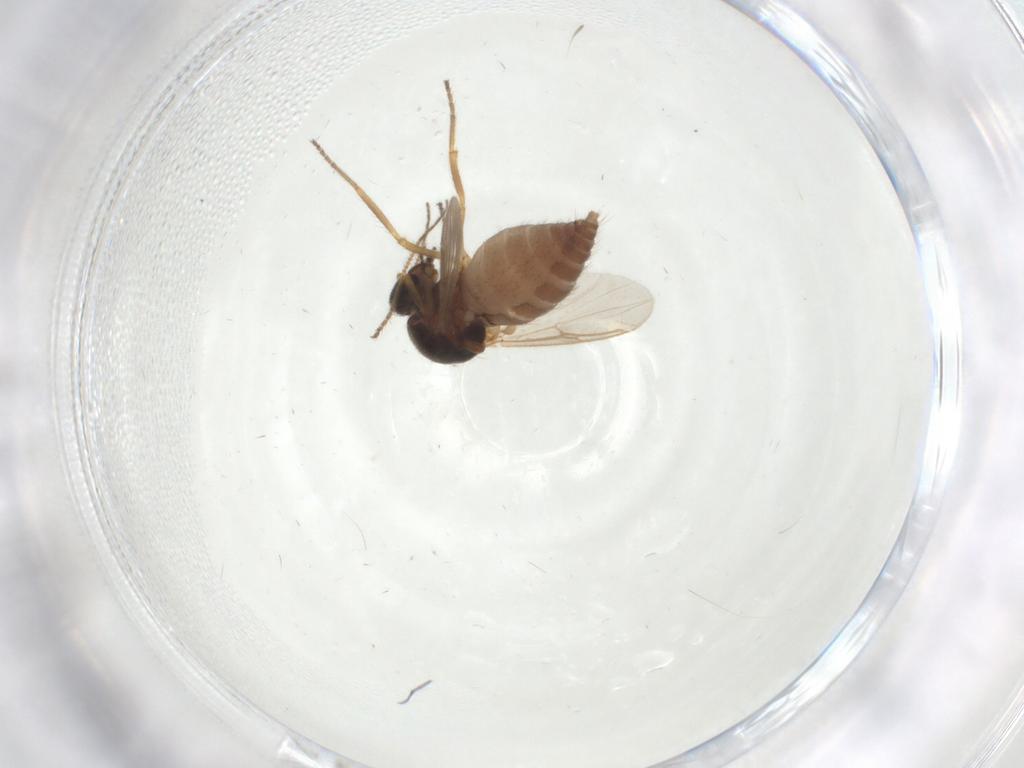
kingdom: Animalia
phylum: Arthropoda
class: Insecta
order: Diptera
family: Ceratopogonidae
